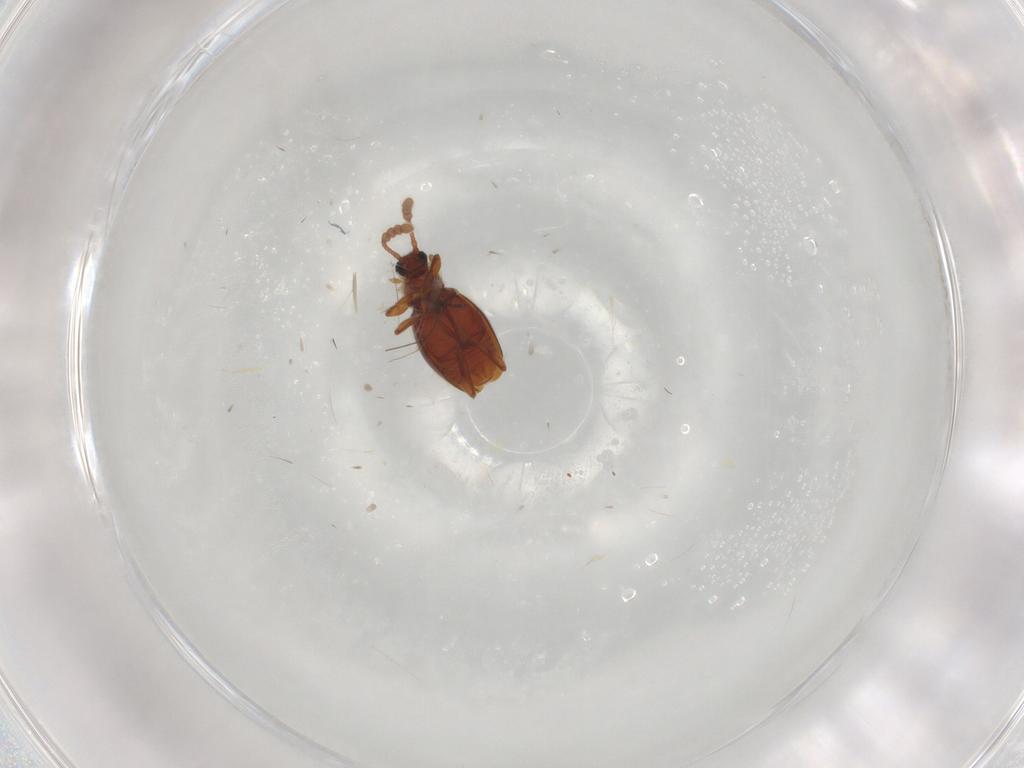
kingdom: Animalia
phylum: Arthropoda
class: Insecta
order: Coleoptera
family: Staphylinidae
